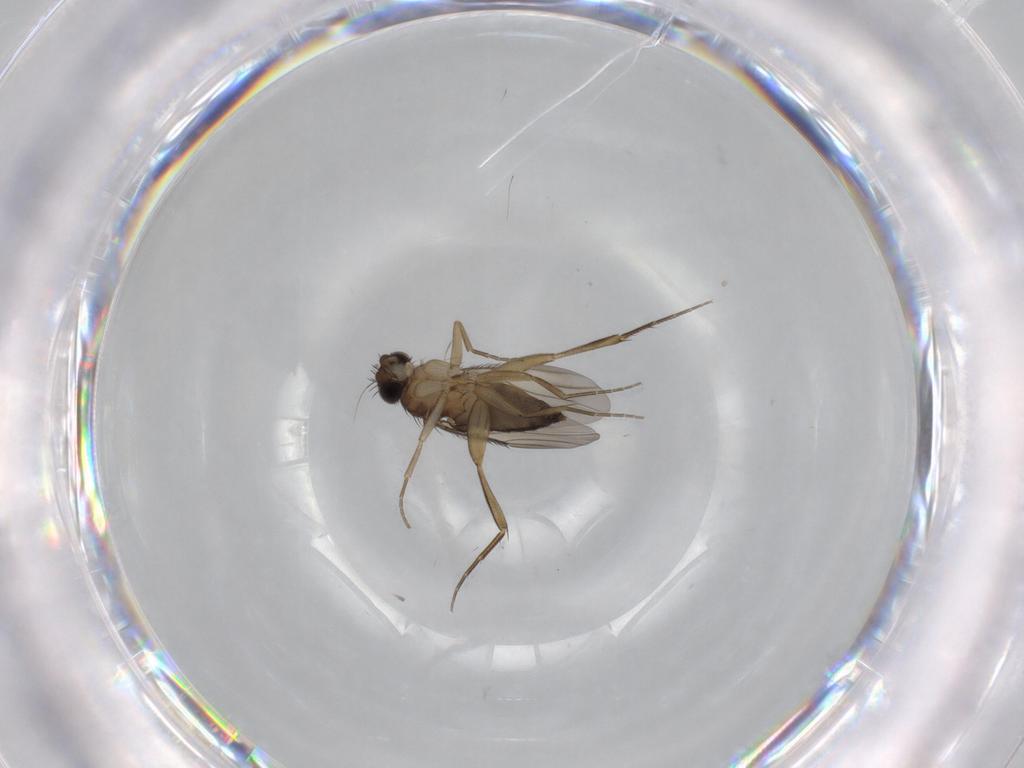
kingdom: Animalia
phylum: Arthropoda
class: Insecta
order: Diptera
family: Phoridae
